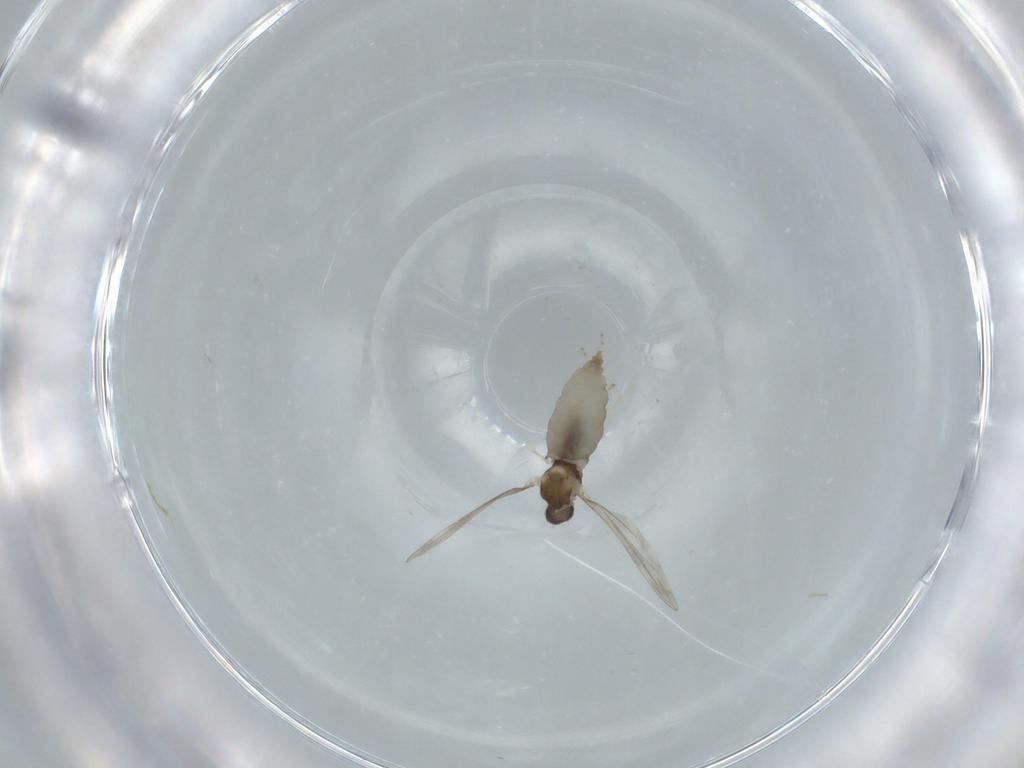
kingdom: Animalia
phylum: Arthropoda
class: Insecta
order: Diptera
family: Cecidomyiidae
